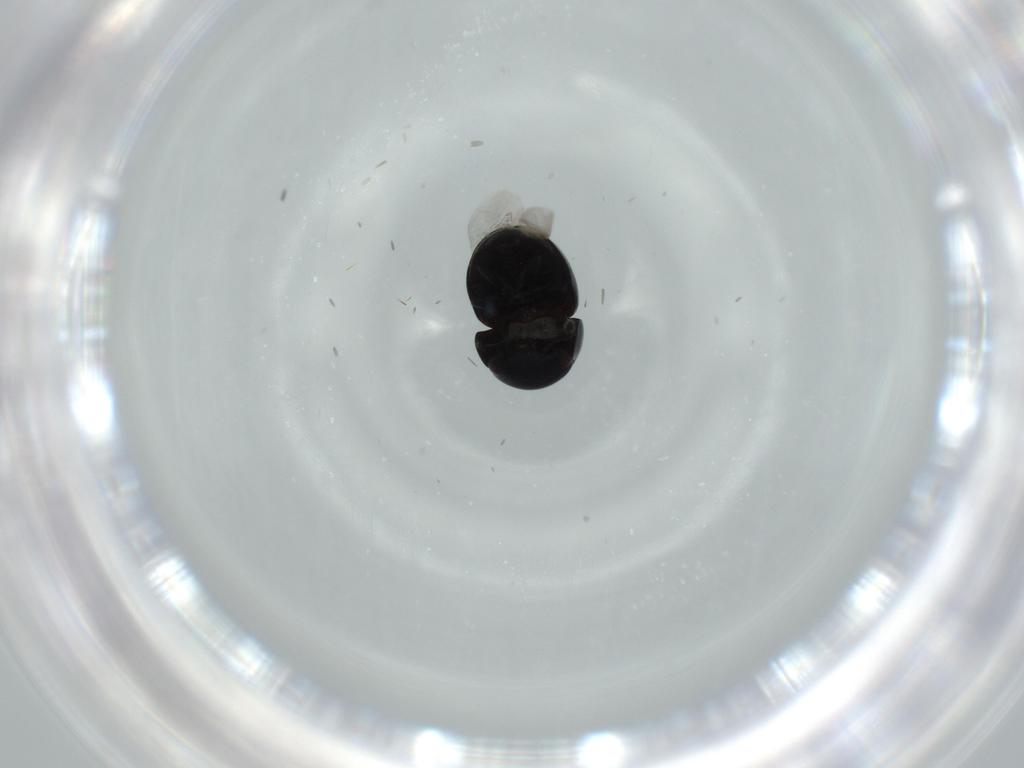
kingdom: Animalia
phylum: Arthropoda
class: Insecta
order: Coleoptera
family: Cybocephalidae
